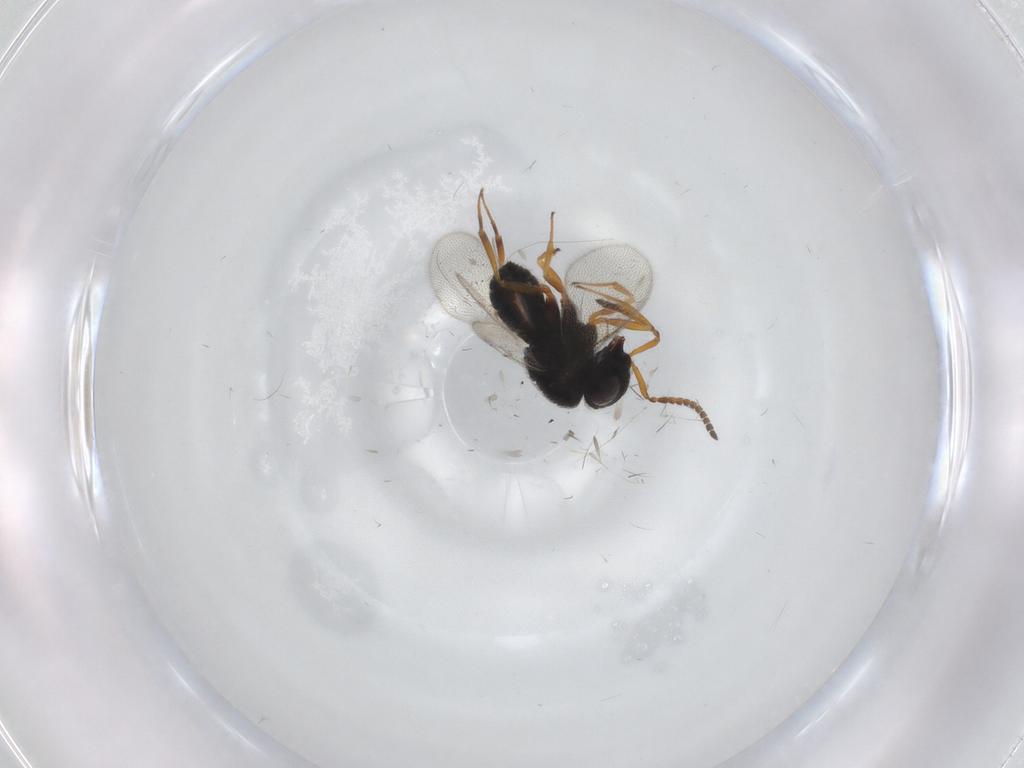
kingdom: Animalia
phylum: Arthropoda
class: Insecta
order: Hymenoptera
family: Scelionidae
